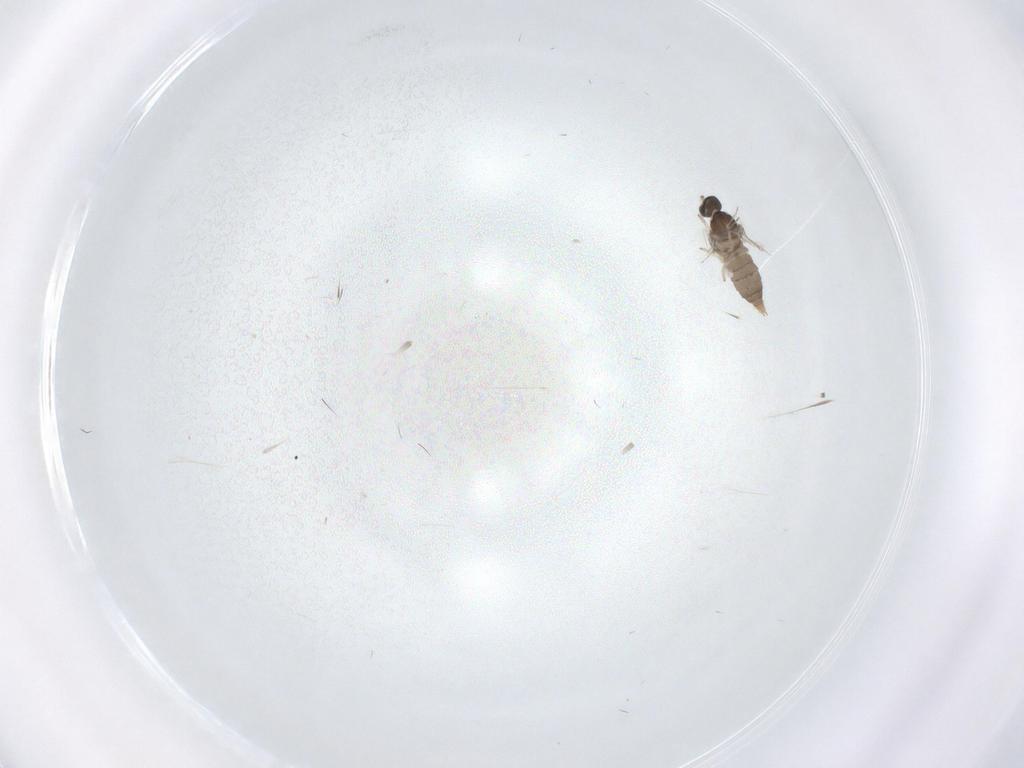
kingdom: Animalia
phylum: Arthropoda
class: Insecta
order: Diptera
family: Cecidomyiidae
